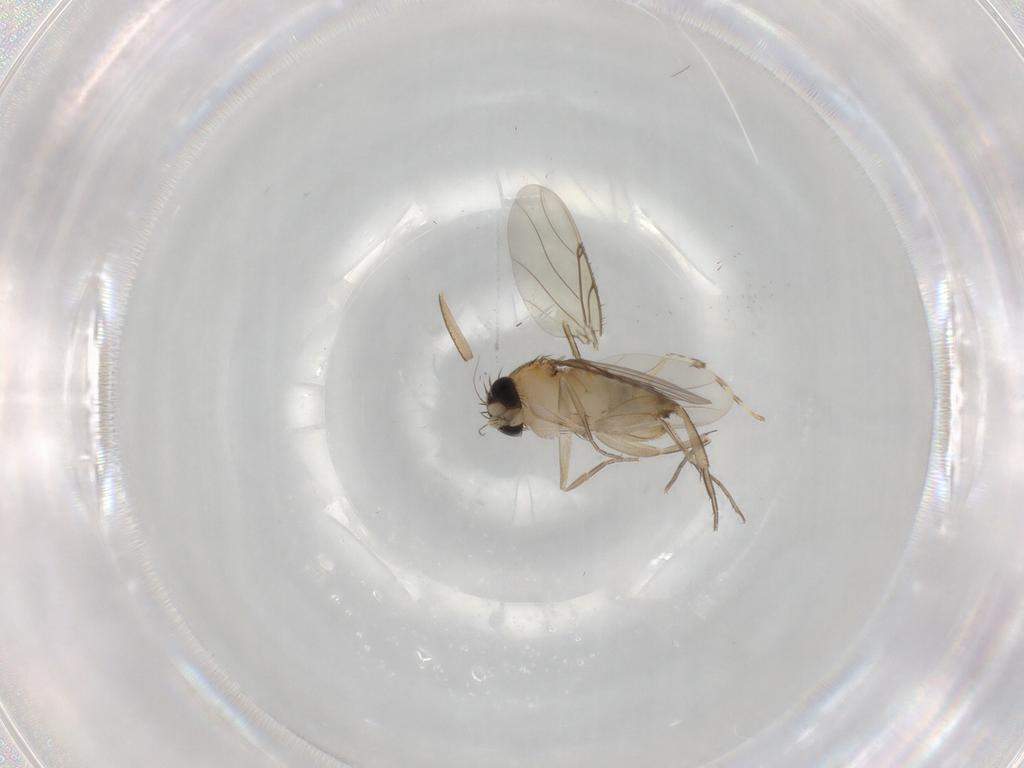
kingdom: Animalia
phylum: Arthropoda
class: Insecta
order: Diptera
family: Phoridae
